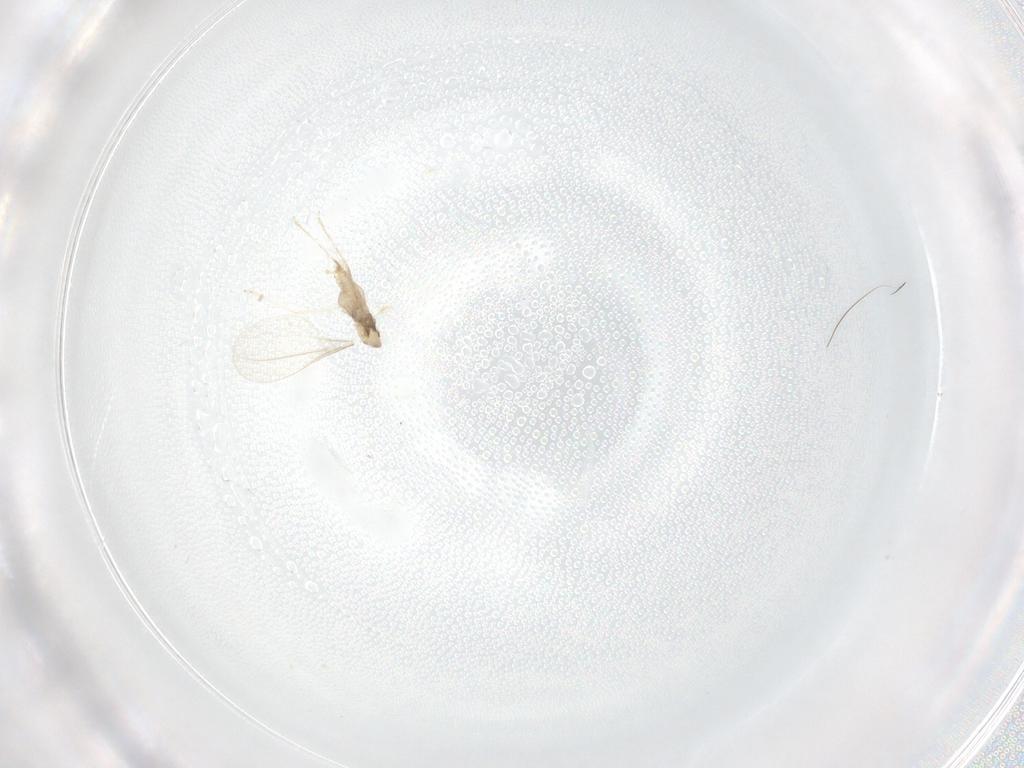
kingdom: Animalia
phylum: Arthropoda
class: Insecta
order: Diptera
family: Cecidomyiidae
